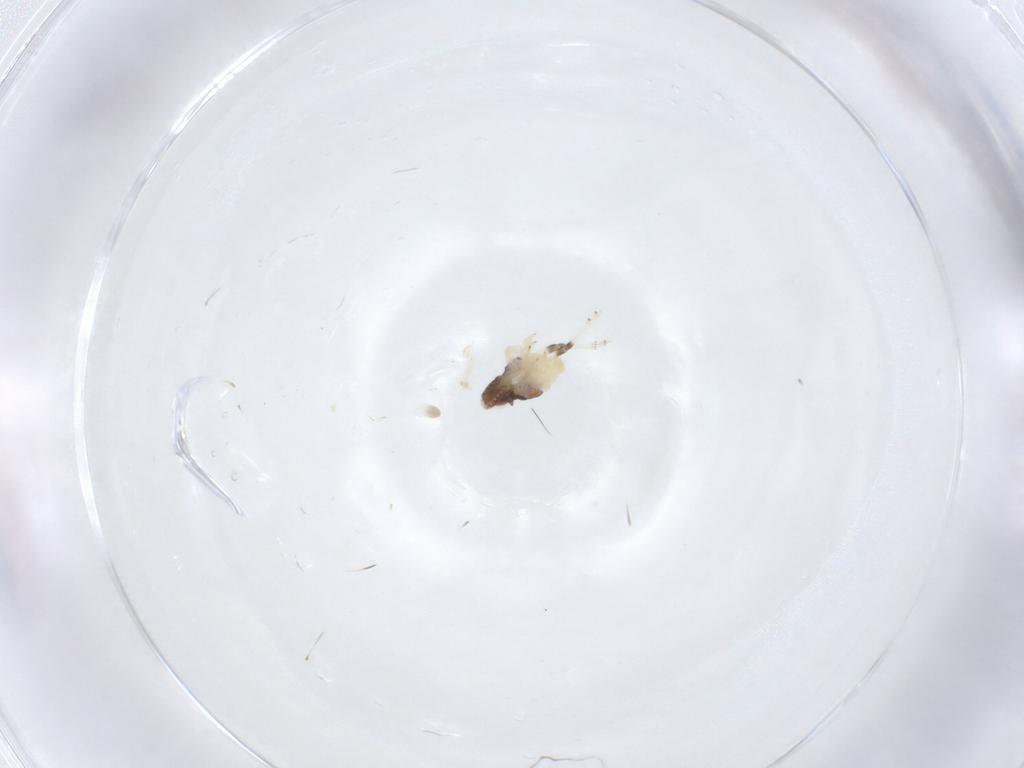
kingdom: Animalia
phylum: Arthropoda
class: Insecta
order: Hemiptera
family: Nogodinidae
